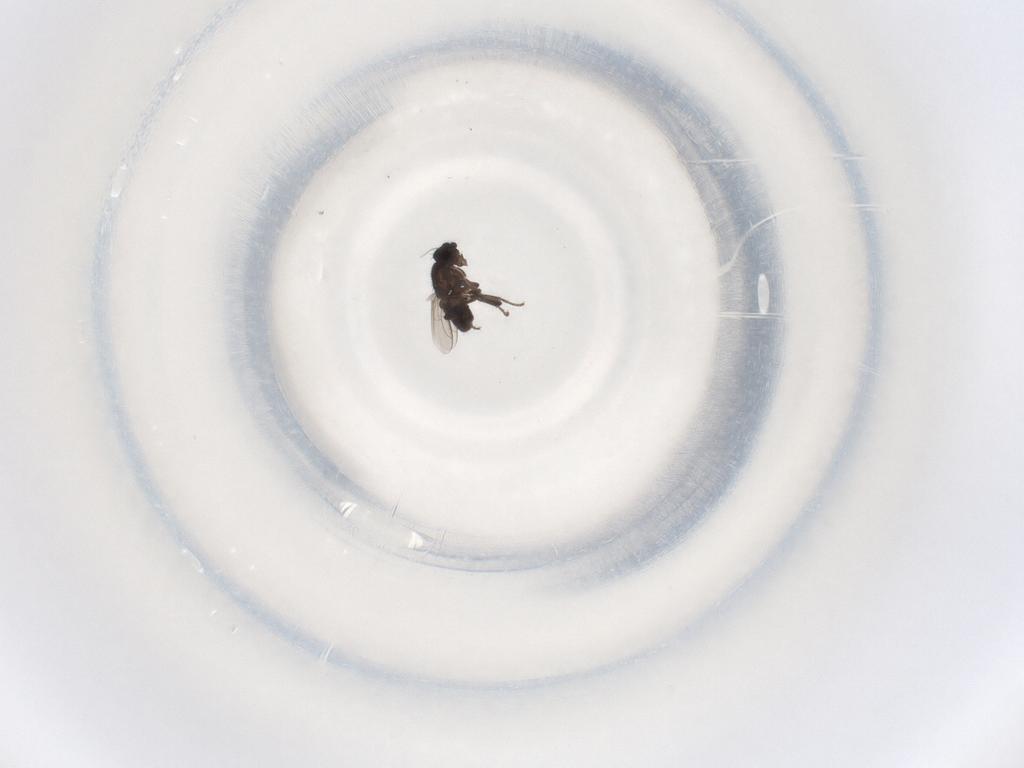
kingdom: Animalia
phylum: Arthropoda
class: Insecta
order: Diptera
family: Sphaeroceridae
